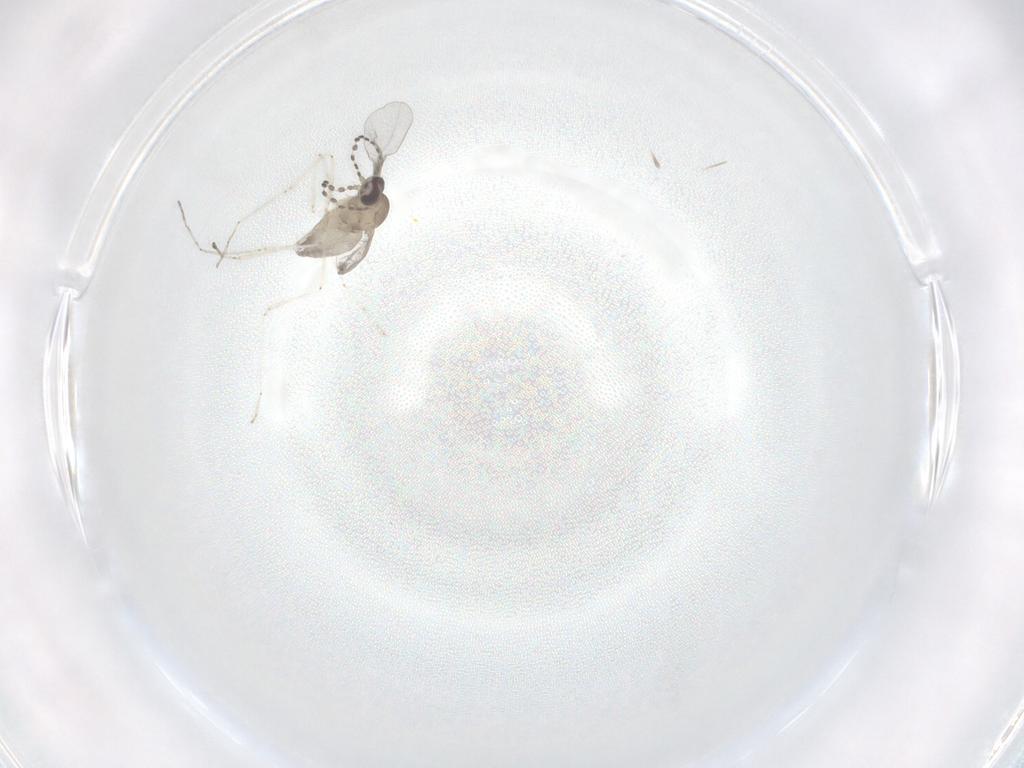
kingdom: Animalia
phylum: Arthropoda
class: Insecta
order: Diptera
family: Cecidomyiidae
